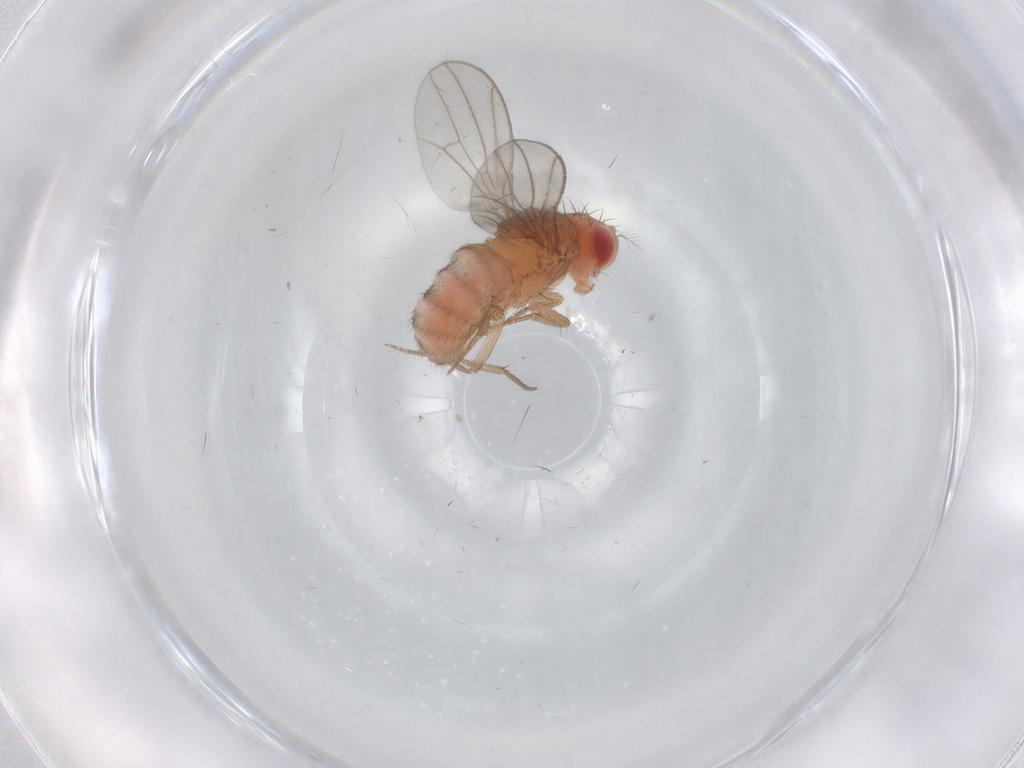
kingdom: Animalia
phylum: Arthropoda
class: Insecta
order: Diptera
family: Drosophilidae
